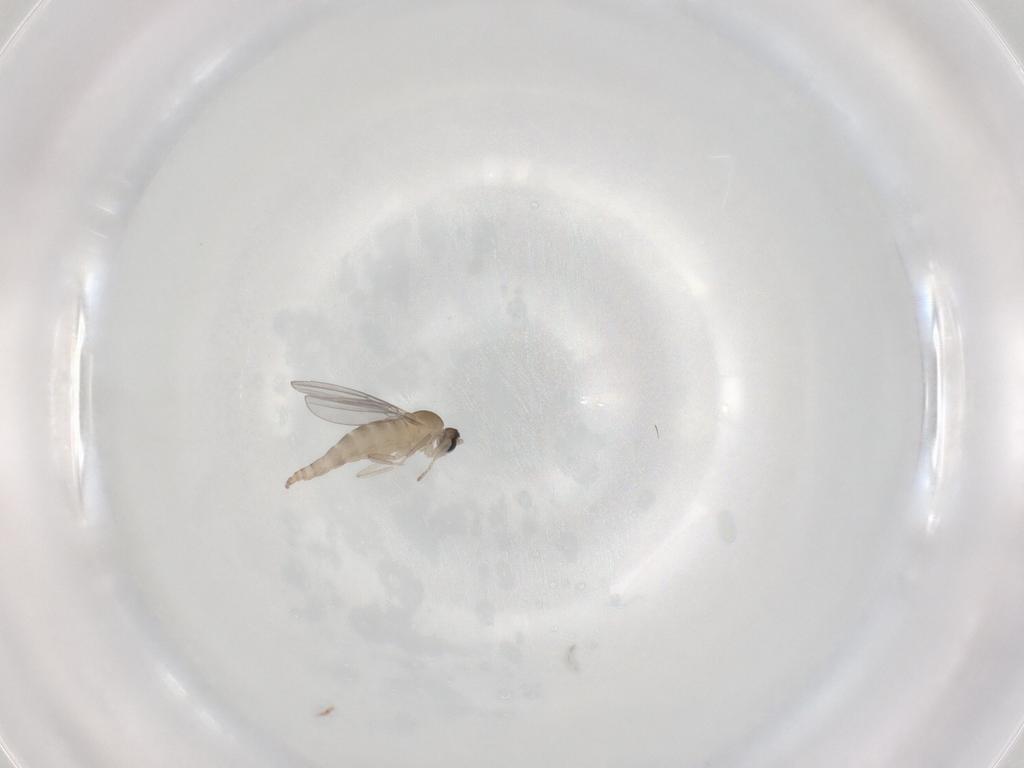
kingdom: Animalia
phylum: Arthropoda
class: Insecta
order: Diptera
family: Cecidomyiidae
